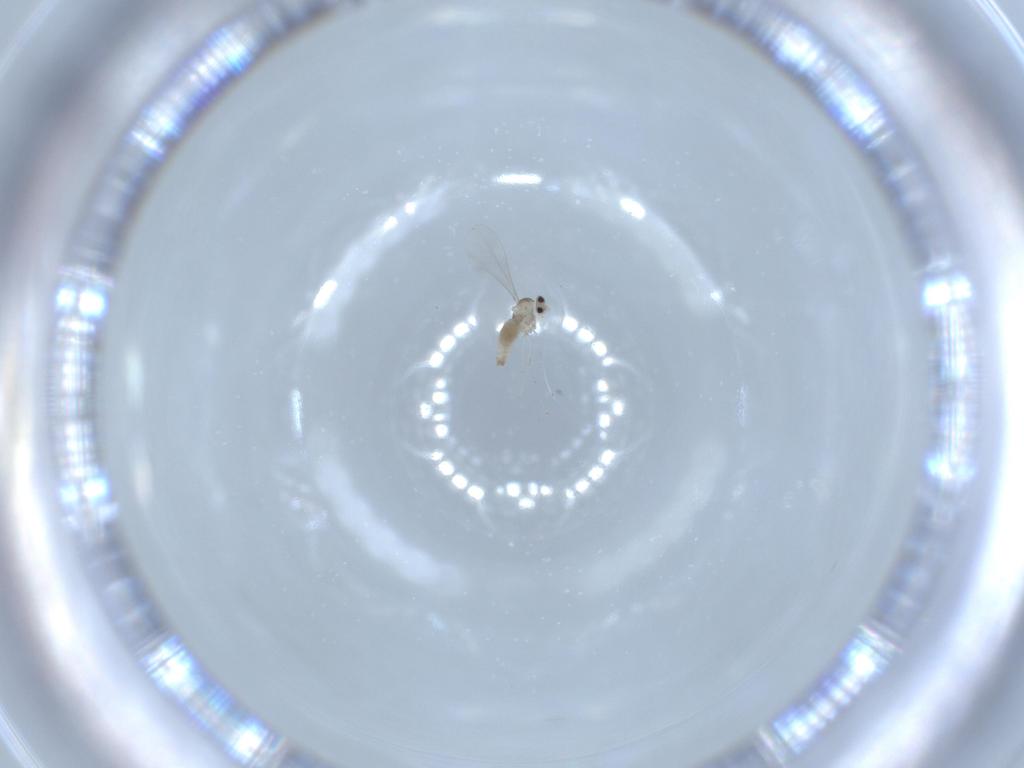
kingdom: Animalia
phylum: Arthropoda
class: Insecta
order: Diptera
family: Cecidomyiidae
